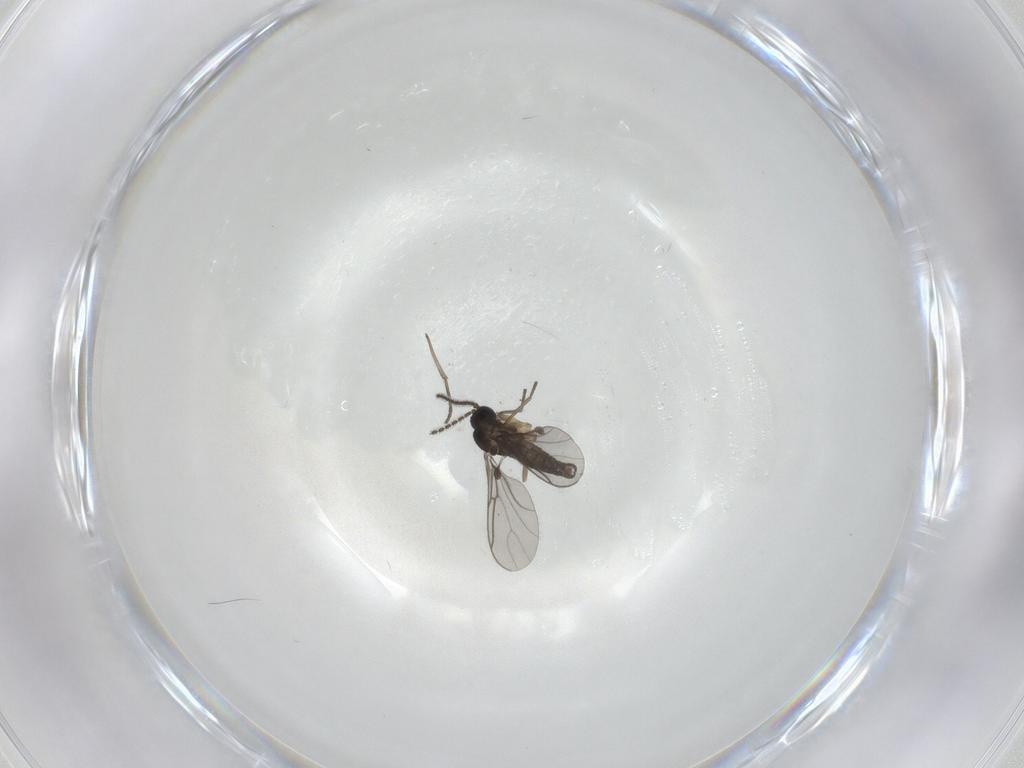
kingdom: Animalia
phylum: Arthropoda
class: Insecta
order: Diptera
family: Sciaridae
